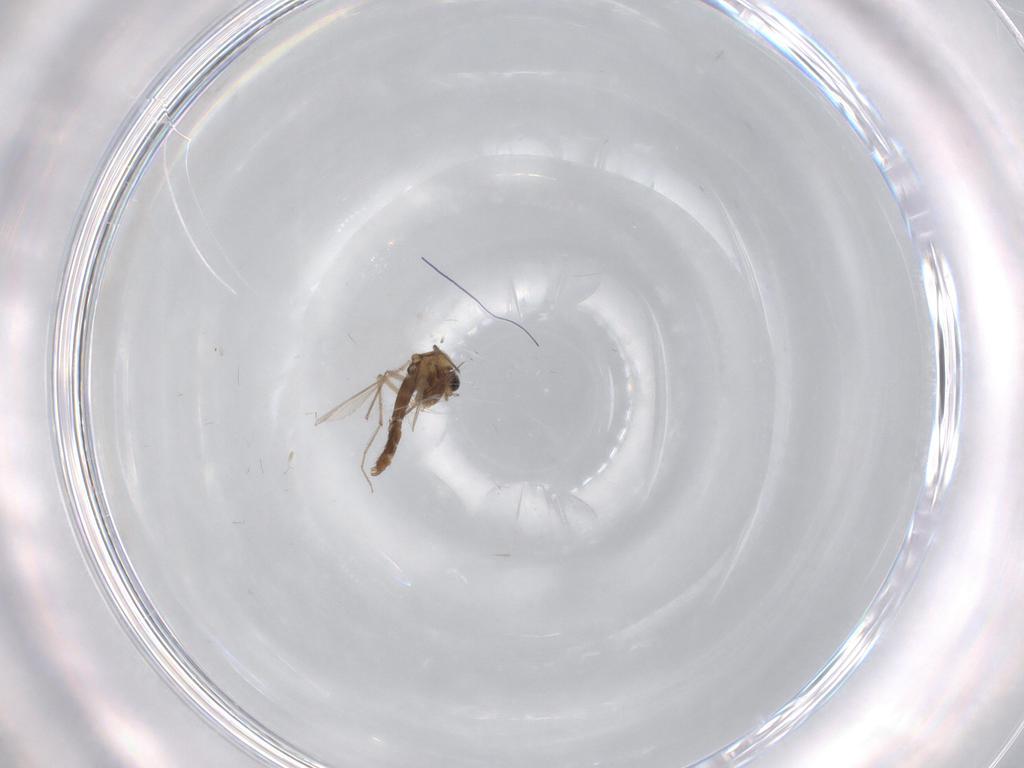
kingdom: Animalia
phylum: Arthropoda
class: Insecta
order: Diptera
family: Chironomidae
